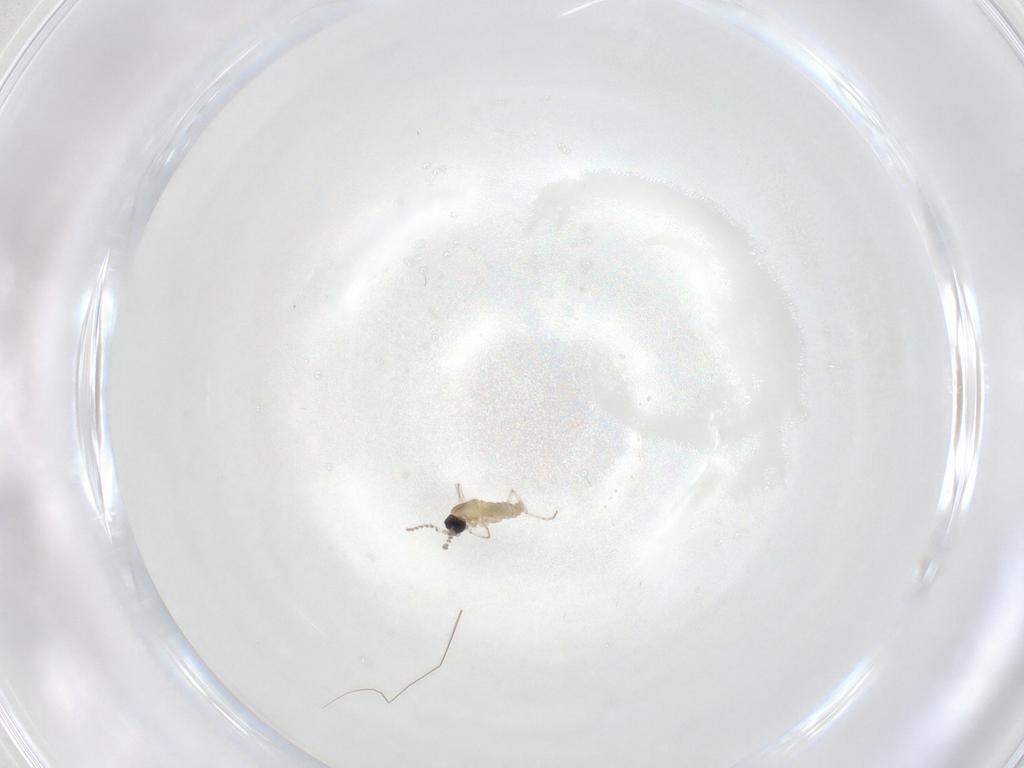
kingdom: Animalia
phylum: Arthropoda
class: Insecta
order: Diptera
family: Cecidomyiidae
